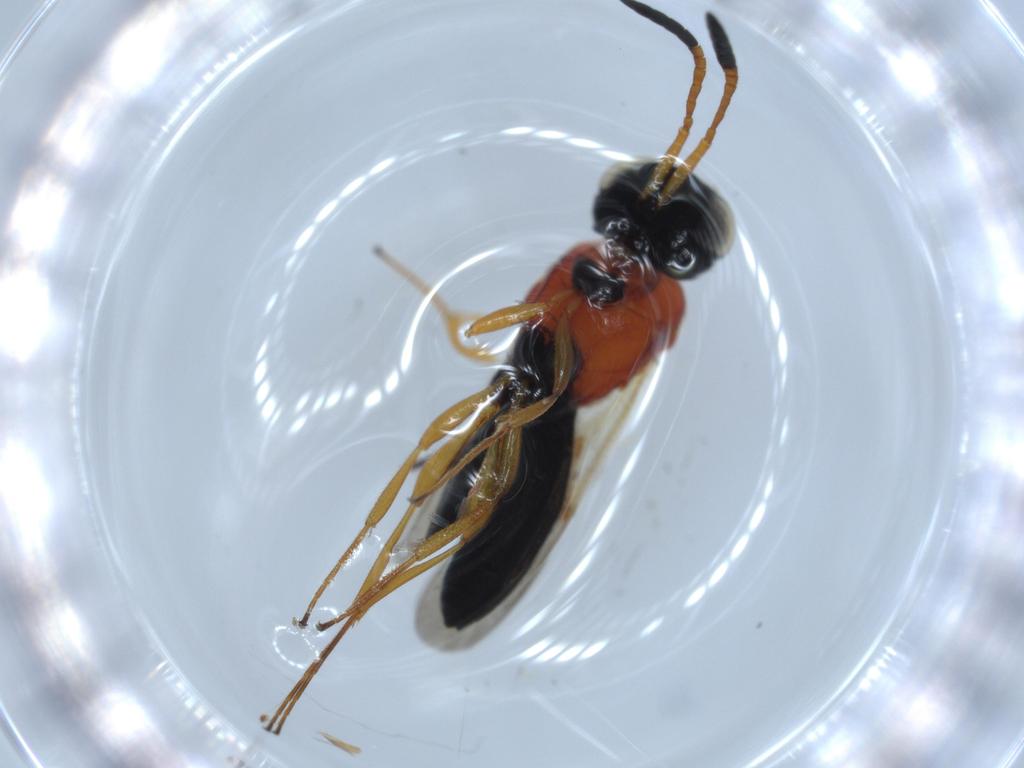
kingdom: Animalia
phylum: Arthropoda
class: Insecta
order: Hymenoptera
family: Scelionidae
